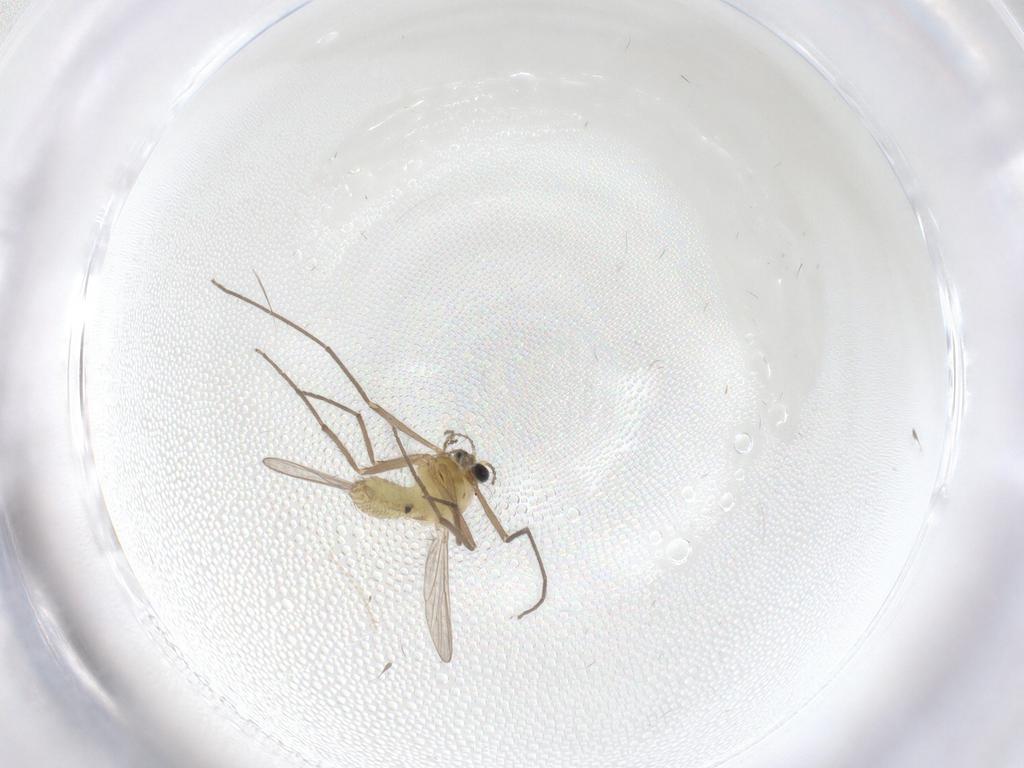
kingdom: Animalia
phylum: Arthropoda
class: Insecta
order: Diptera
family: Chironomidae
